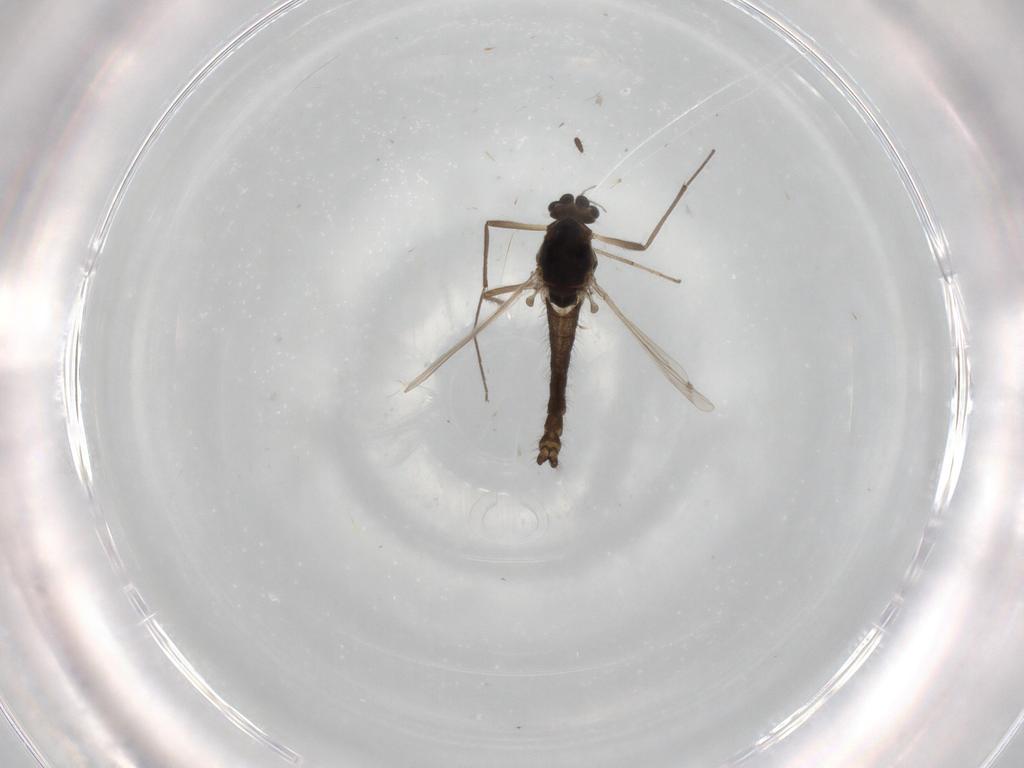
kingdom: Animalia
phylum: Arthropoda
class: Insecta
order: Diptera
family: Chironomidae
